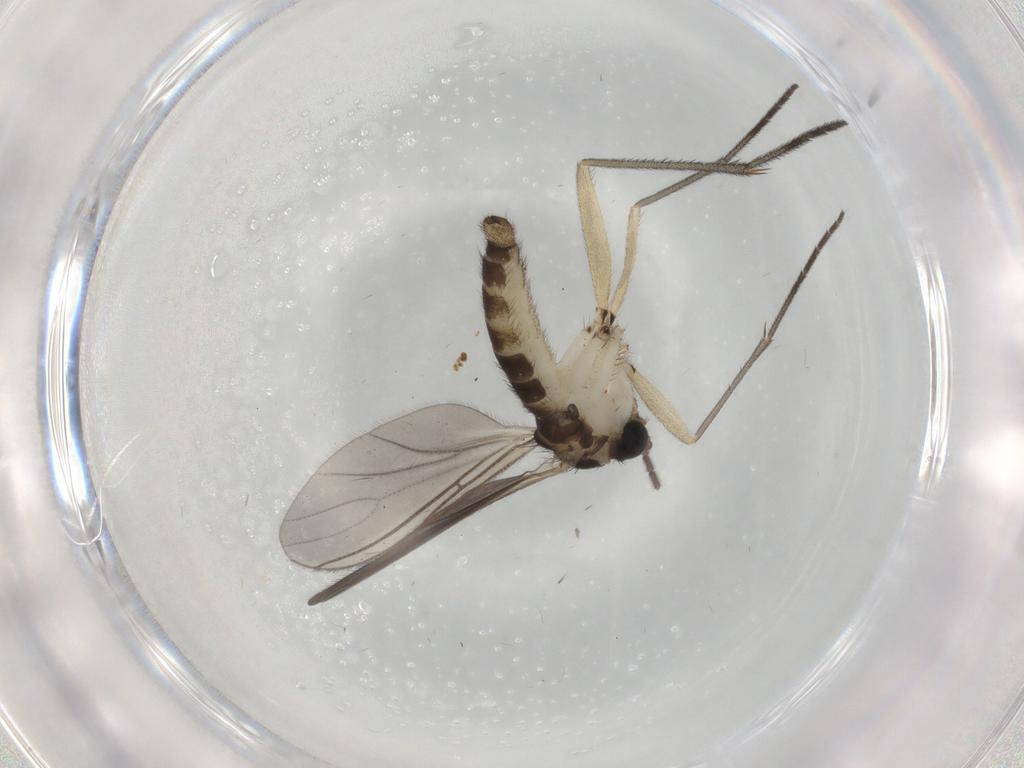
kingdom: Animalia
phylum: Arthropoda
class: Insecta
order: Diptera
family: Sciaridae
